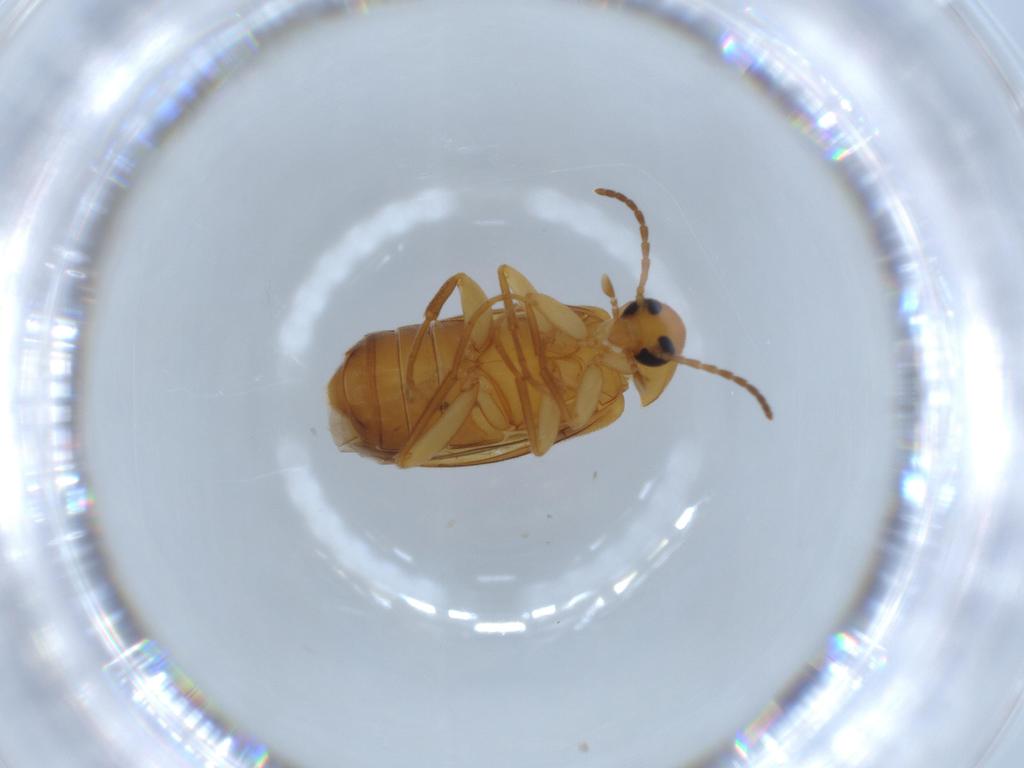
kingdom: Animalia
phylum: Arthropoda
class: Insecta
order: Coleoptera
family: Scraptiidae
